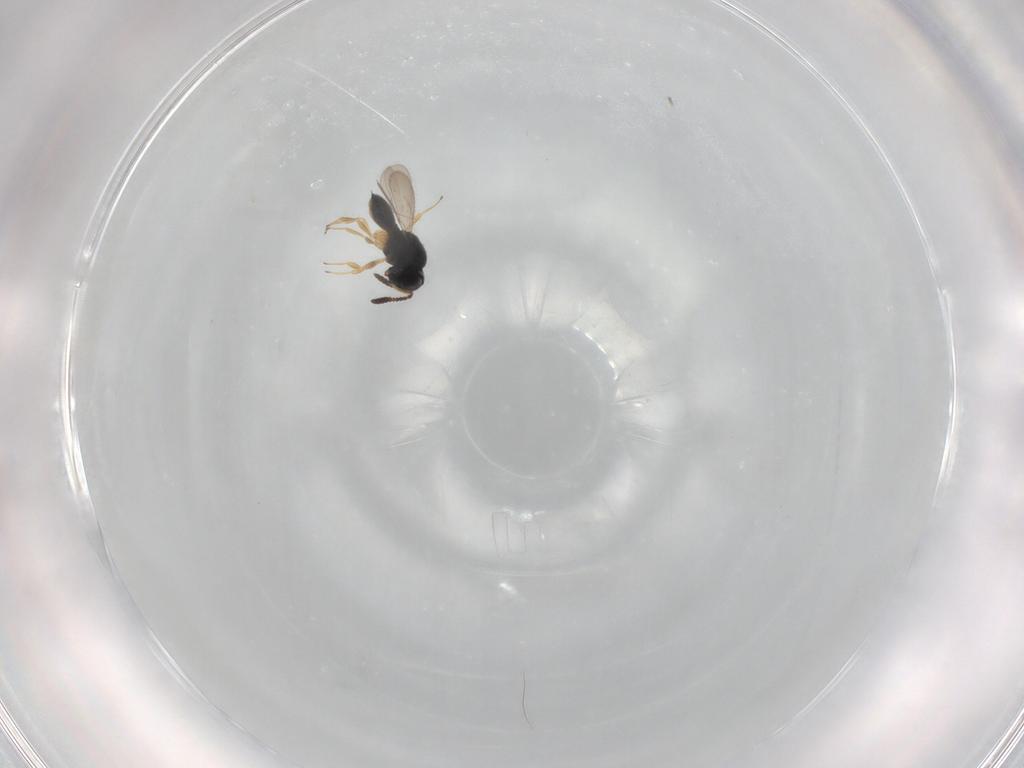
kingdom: Animalia
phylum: Arthropoda
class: Insecta
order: Hymenoptera
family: Scelionidae
